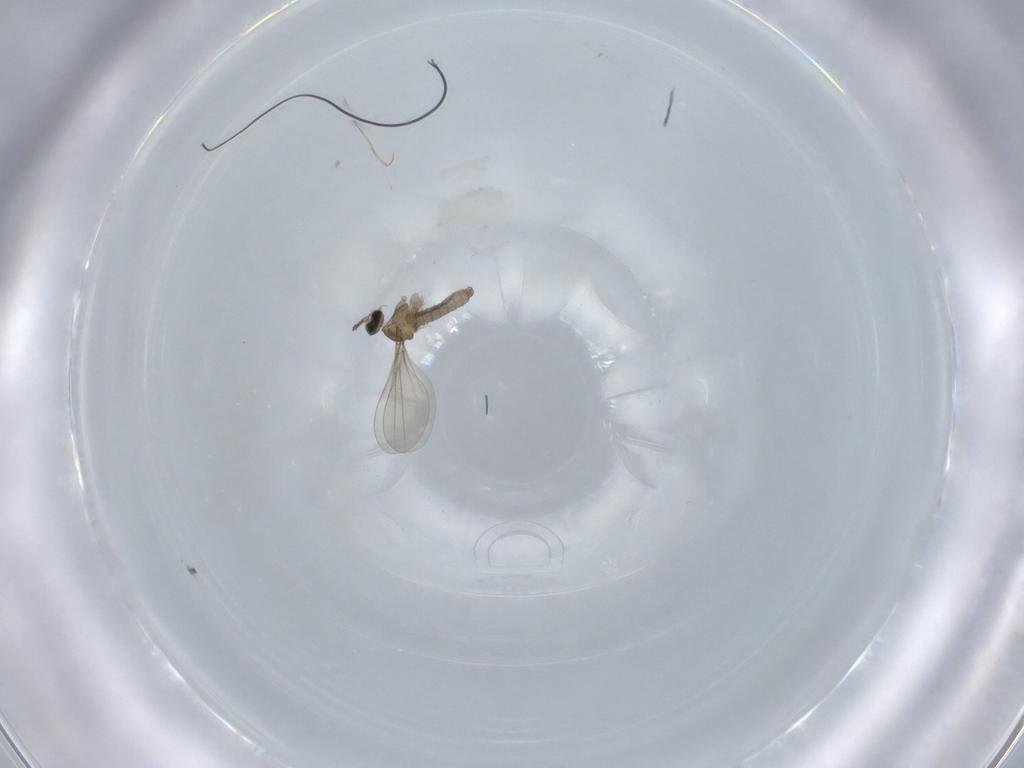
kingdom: Animalia
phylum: Arthropoda
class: Insecta
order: Diptera
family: Cecidomyiidae
